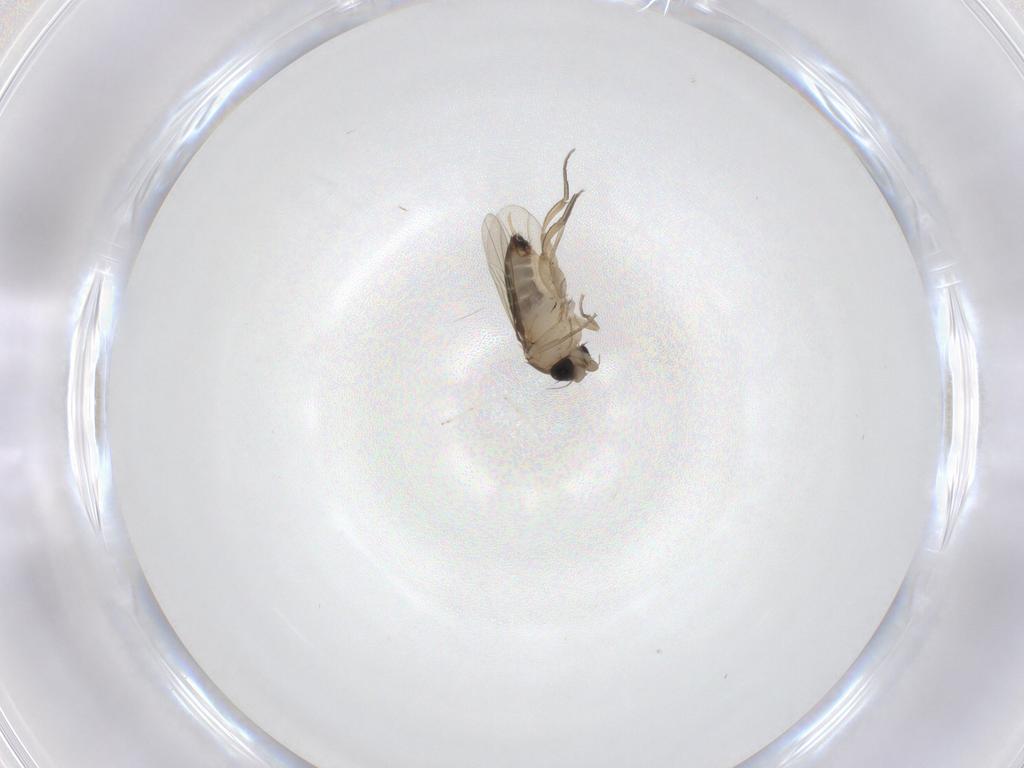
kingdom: Animalia
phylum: Arthropoda
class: Insecta
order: Diptera
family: Phoridae
